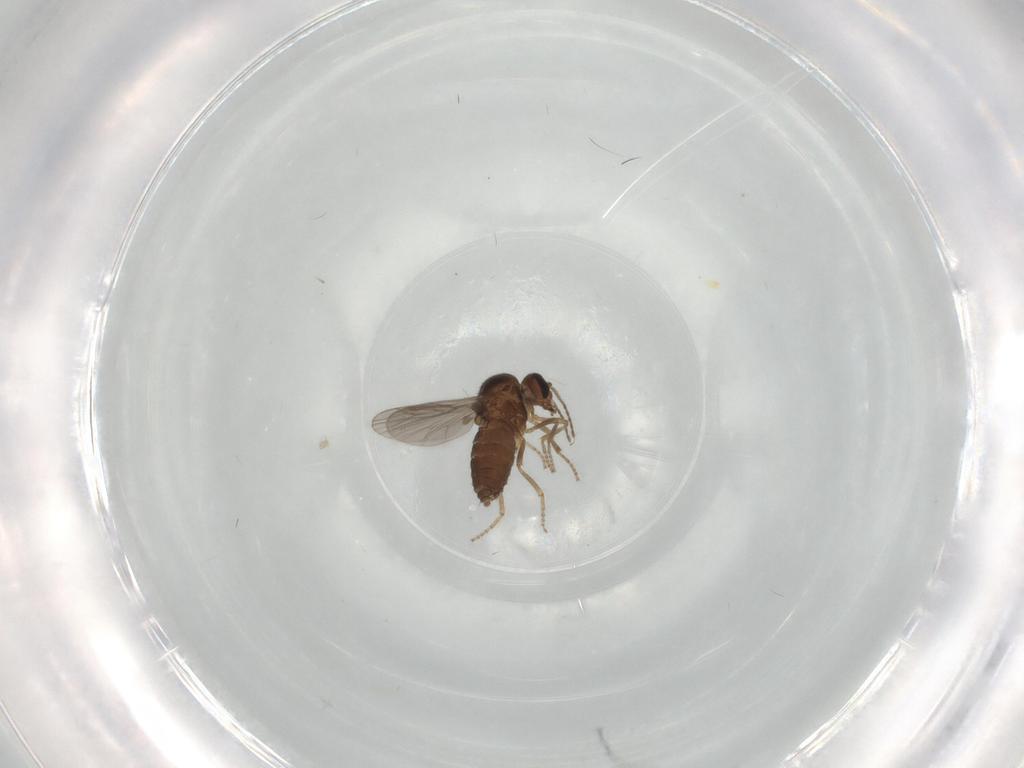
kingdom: Animalia
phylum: Arthropoda
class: Insecta
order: Diptera
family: Ceratopogonidae
